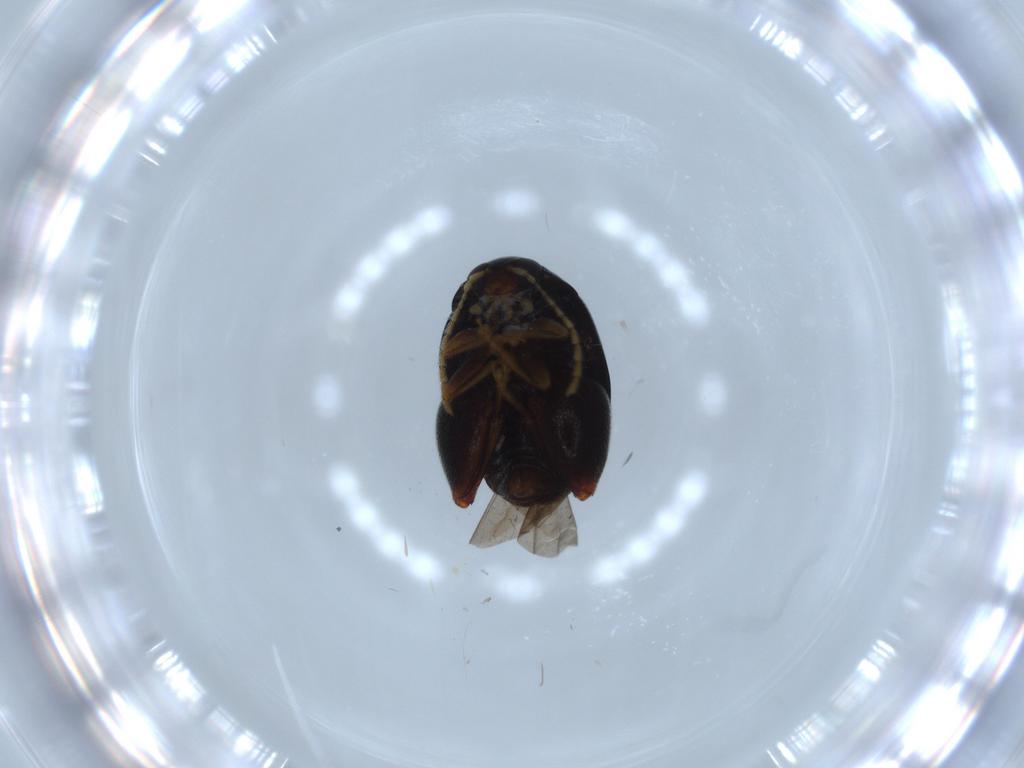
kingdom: Animalia
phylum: Arthropoda
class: Insecta
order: Coleoptera
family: Chrysomelidae
